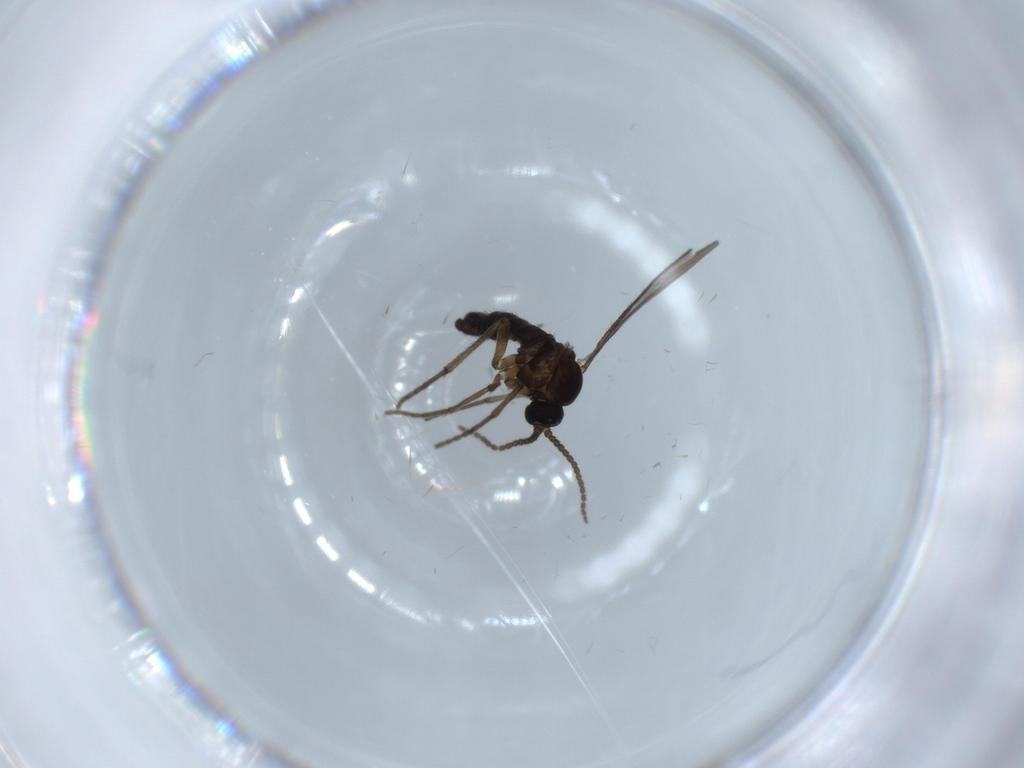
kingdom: Animalia
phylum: Arthropoda
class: Insecta
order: Diptera
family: Sciaridae
